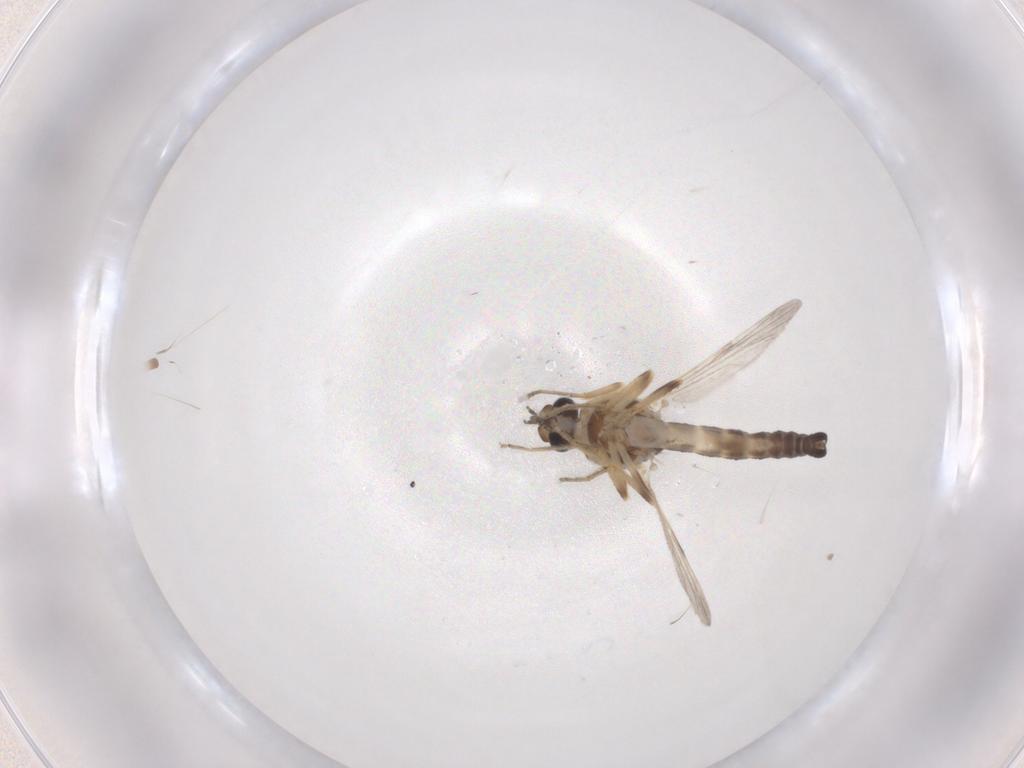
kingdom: Animalia
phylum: Arthropoda
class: Insecta
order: Diptera
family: Ceratopogonidae
